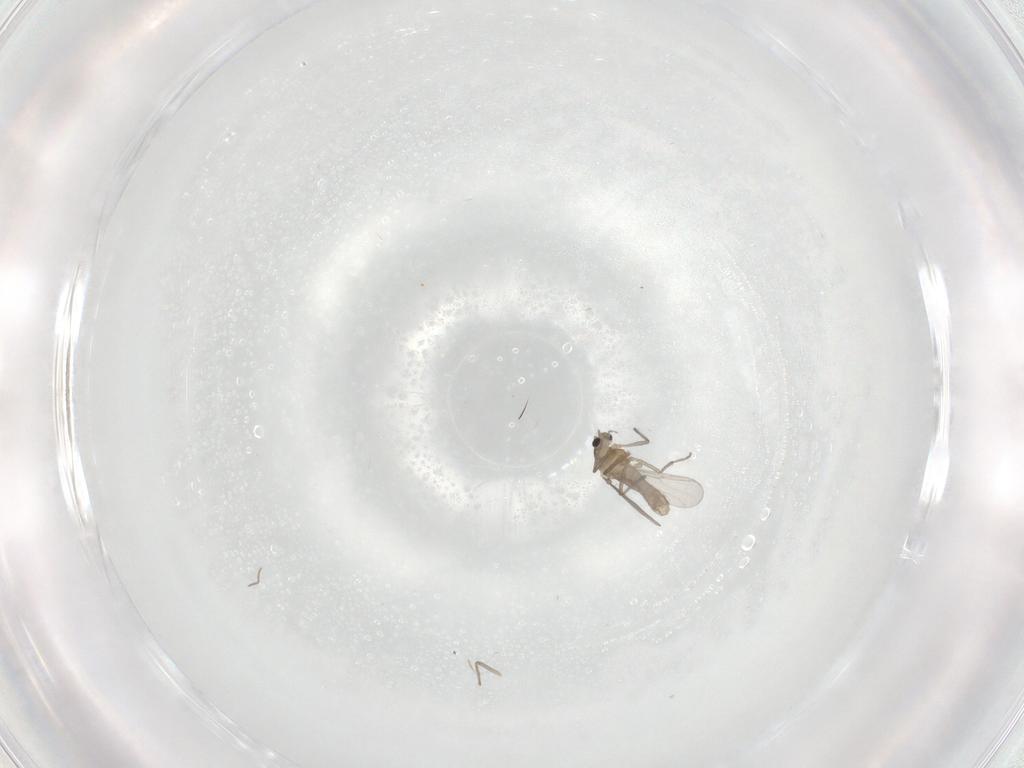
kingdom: Animalia
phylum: Arthropoda
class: Insecta
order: Diptera
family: Chironomidae
